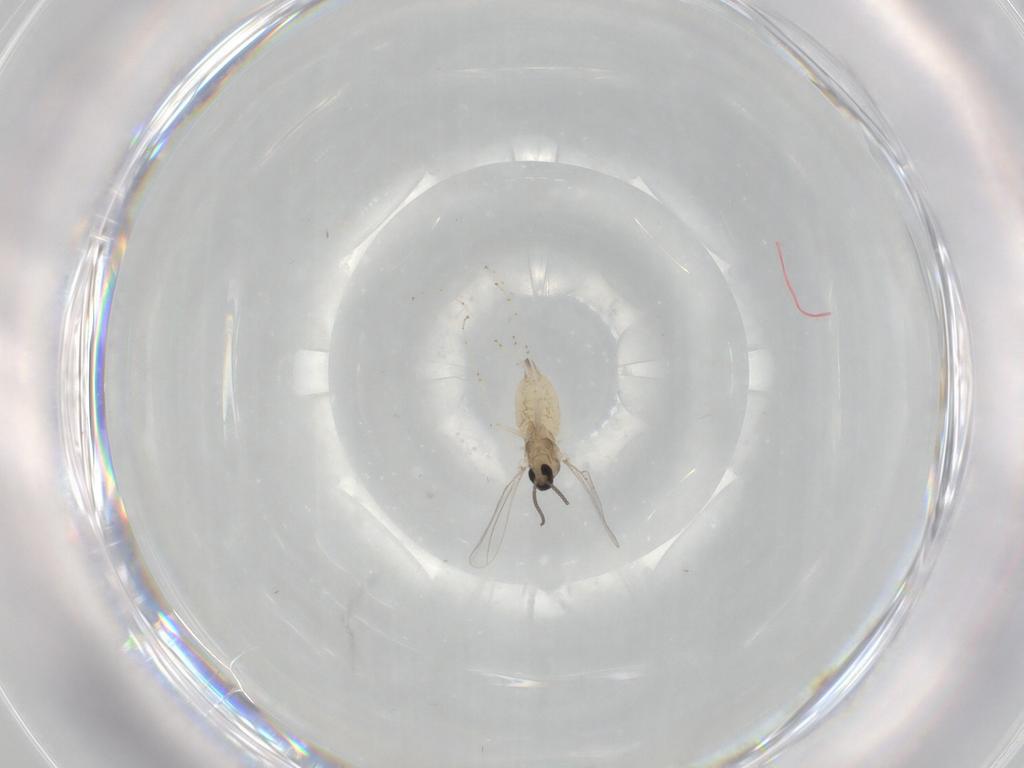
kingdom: Animalia
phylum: Arthropoda
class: Insecta
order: Diptera
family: Cecidomyiidae
